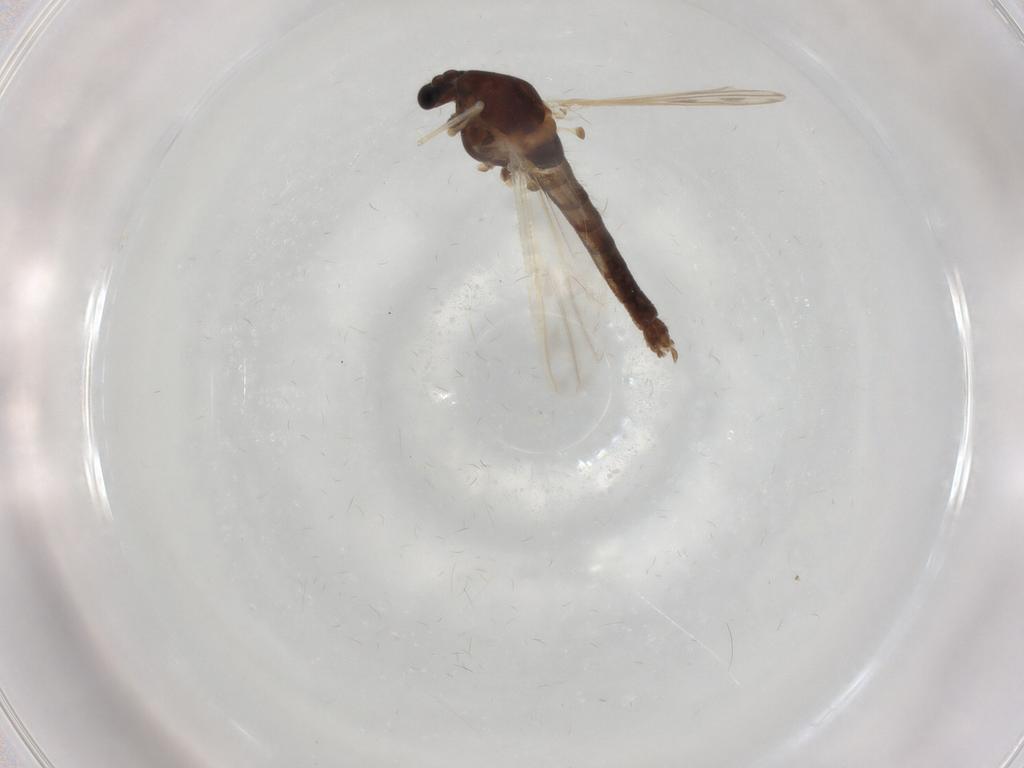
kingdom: Animalia
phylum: Arthropoda
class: Insecta
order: Diptera
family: Chironomidae
